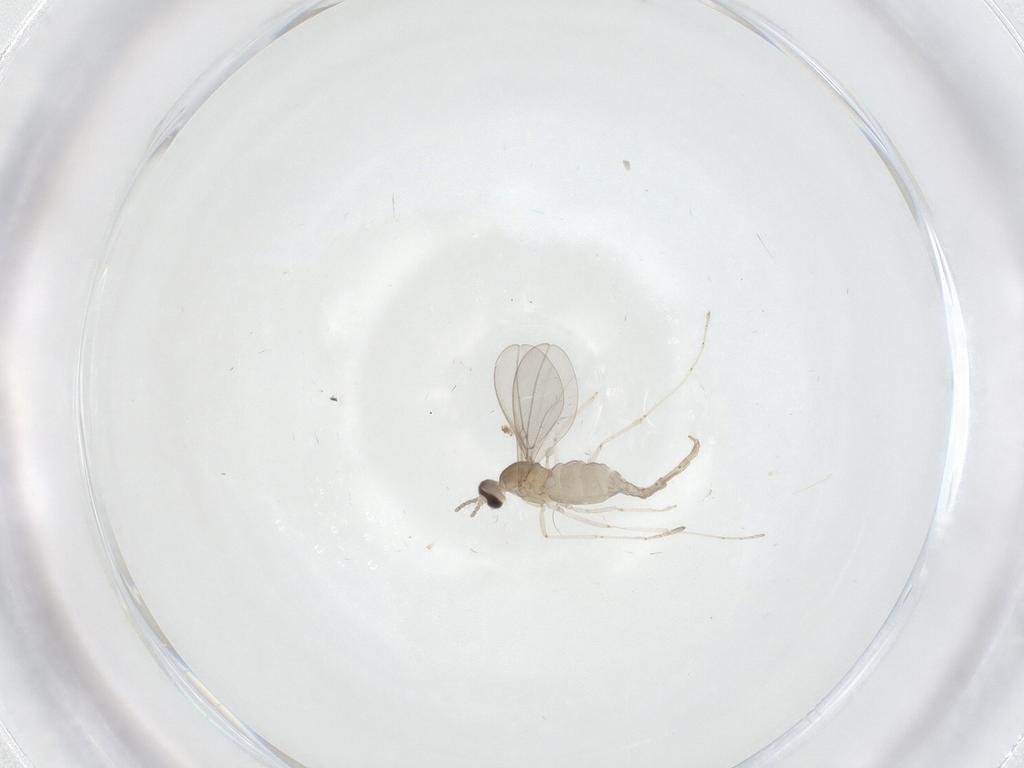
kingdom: Animalia
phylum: Arthropoda
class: Insecta
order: Diptera
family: Cecidomyiidae
